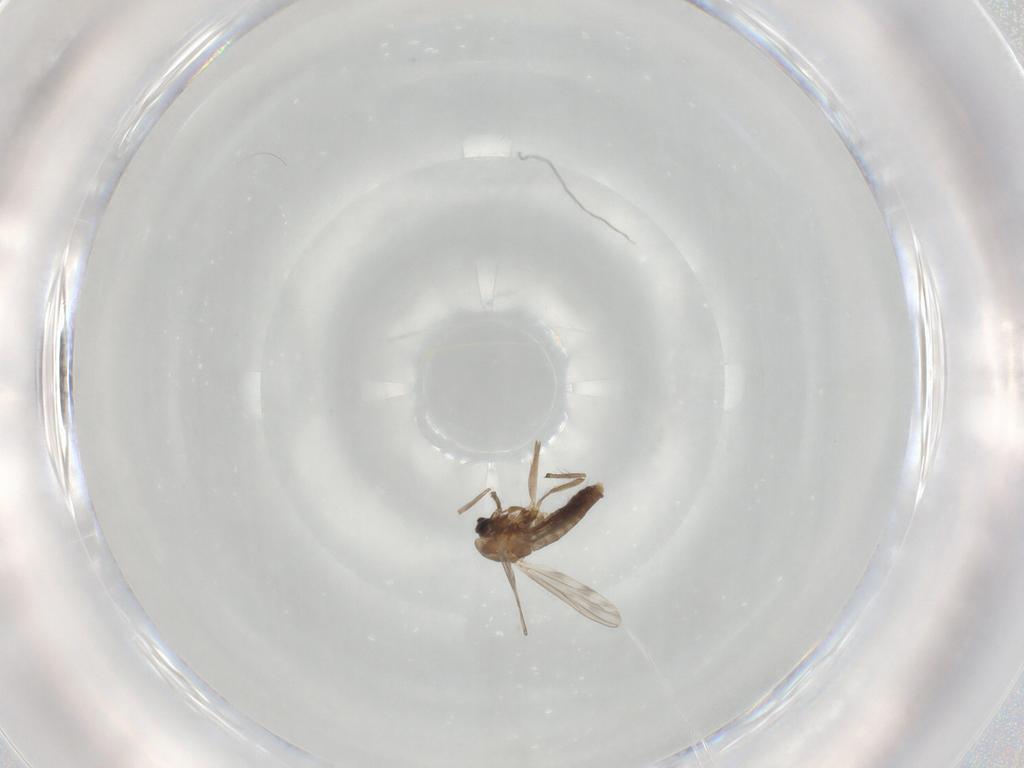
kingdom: Animalia
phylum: Arthropoda
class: Insecta
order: Diptera
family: Chironomidae
